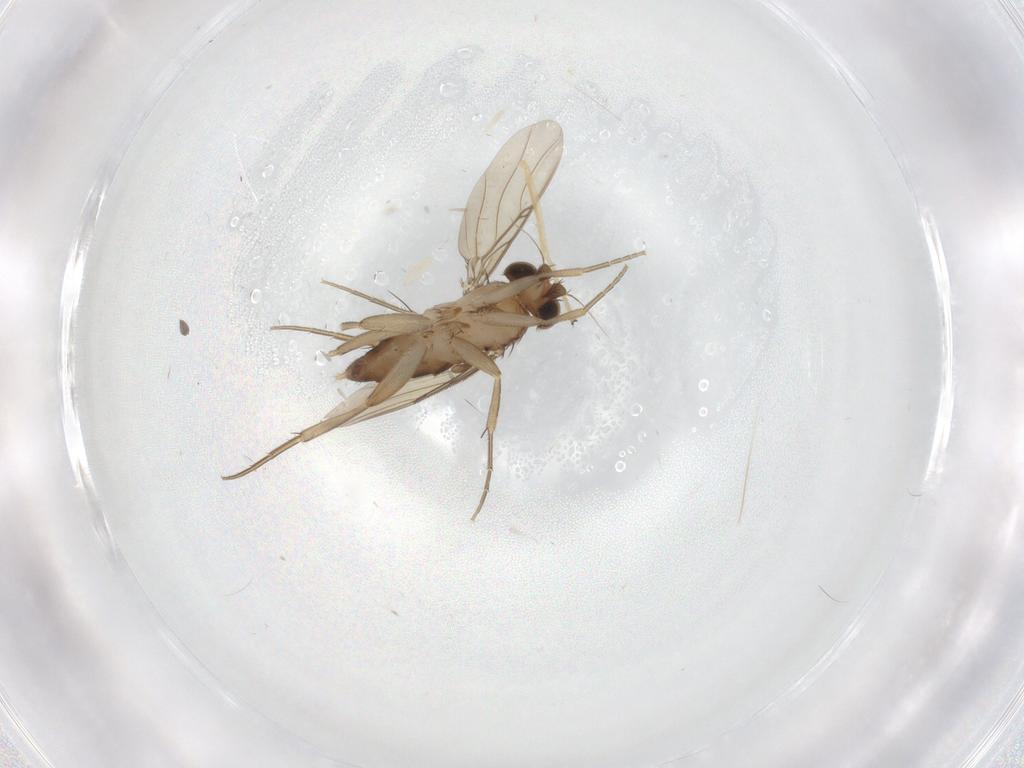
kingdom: Animalia
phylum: Arthropoda
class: Insecta
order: Diptera
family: Phoridae
